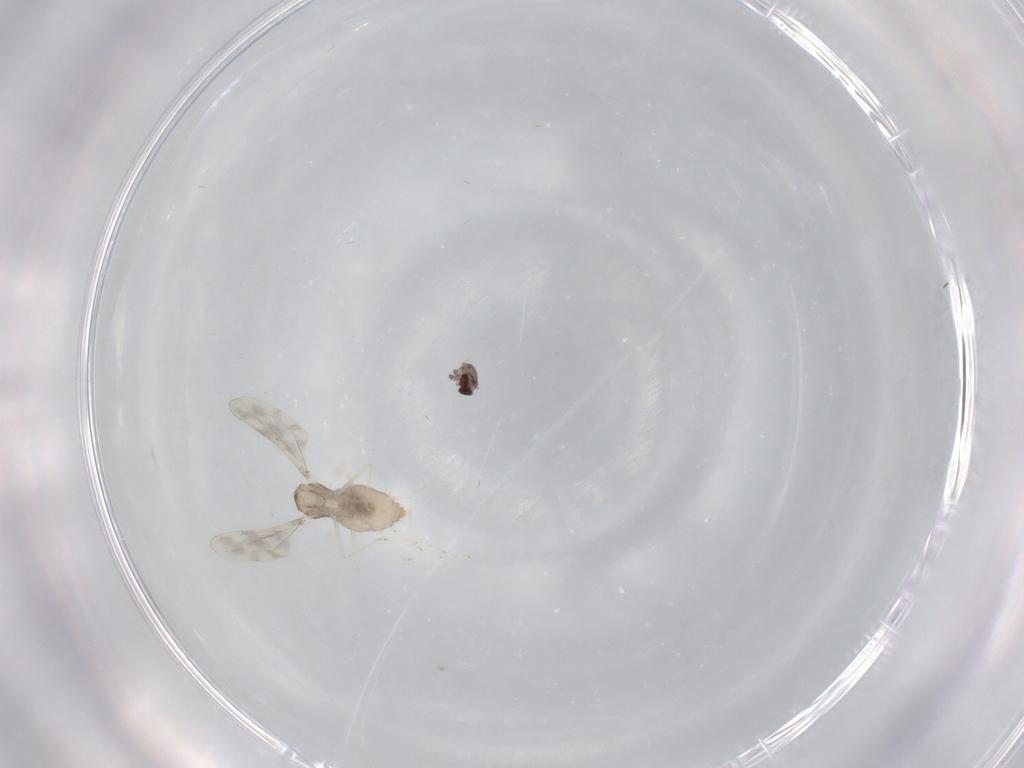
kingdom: Animalia
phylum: Arthropoda
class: Insecta
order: Diptera
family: Cecidomyiidae
